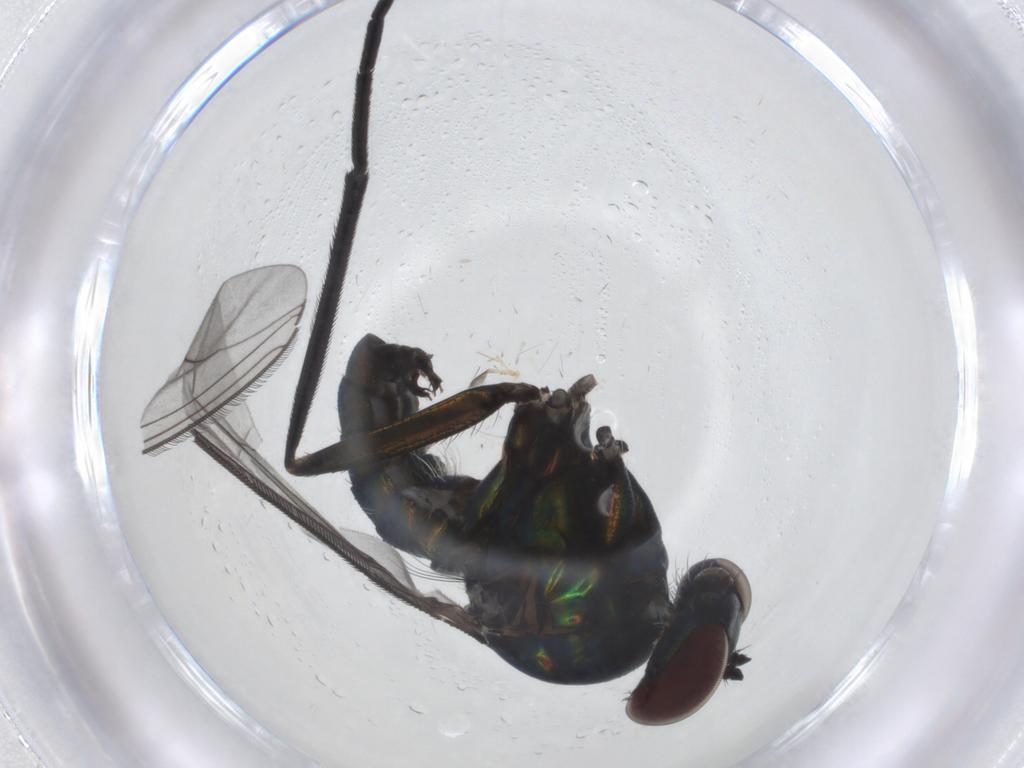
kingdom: Animalia
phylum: Arthropoda
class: Insecta
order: Diptera
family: Dolichopodidae
